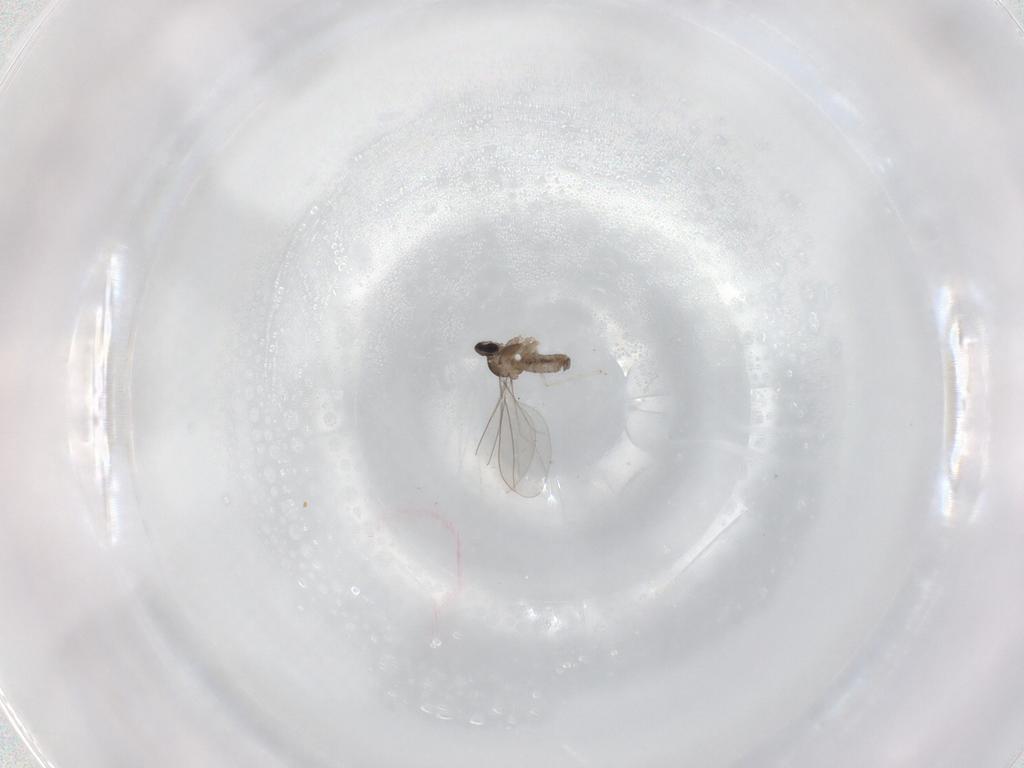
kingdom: Animalia
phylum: Arthropoda
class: Insecta
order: Diptera
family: Cecidomyiidae
